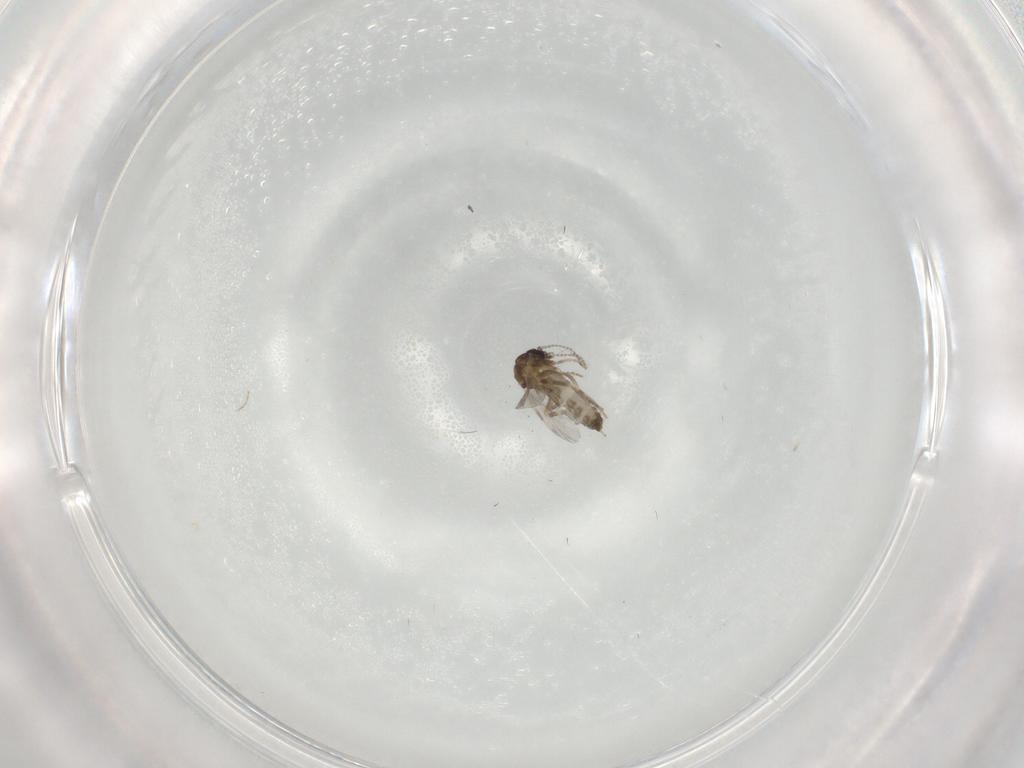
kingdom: Animalia
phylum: Arthropoda
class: Insecta
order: Diptera
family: Ceratopogonidae
